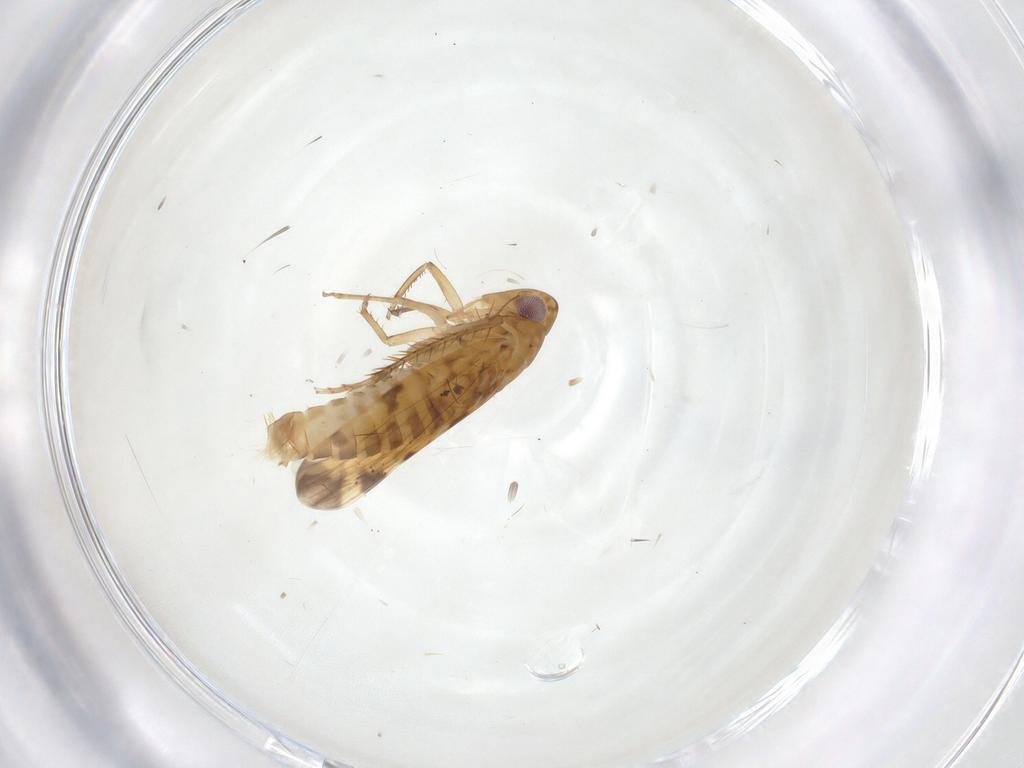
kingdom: Animalia
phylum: Arthropoda
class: Insecta
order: Hemiptera
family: Cicadellidae
